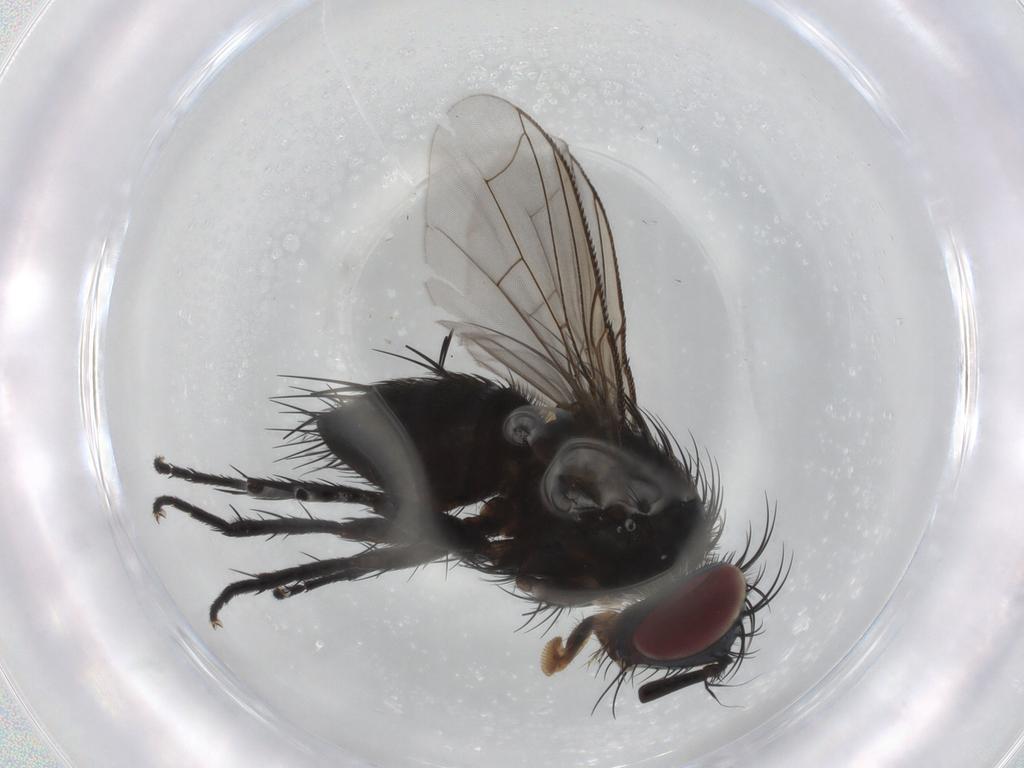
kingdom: Animalia
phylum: Arthropoda
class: Insecta
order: Diptera
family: Tachinidae
